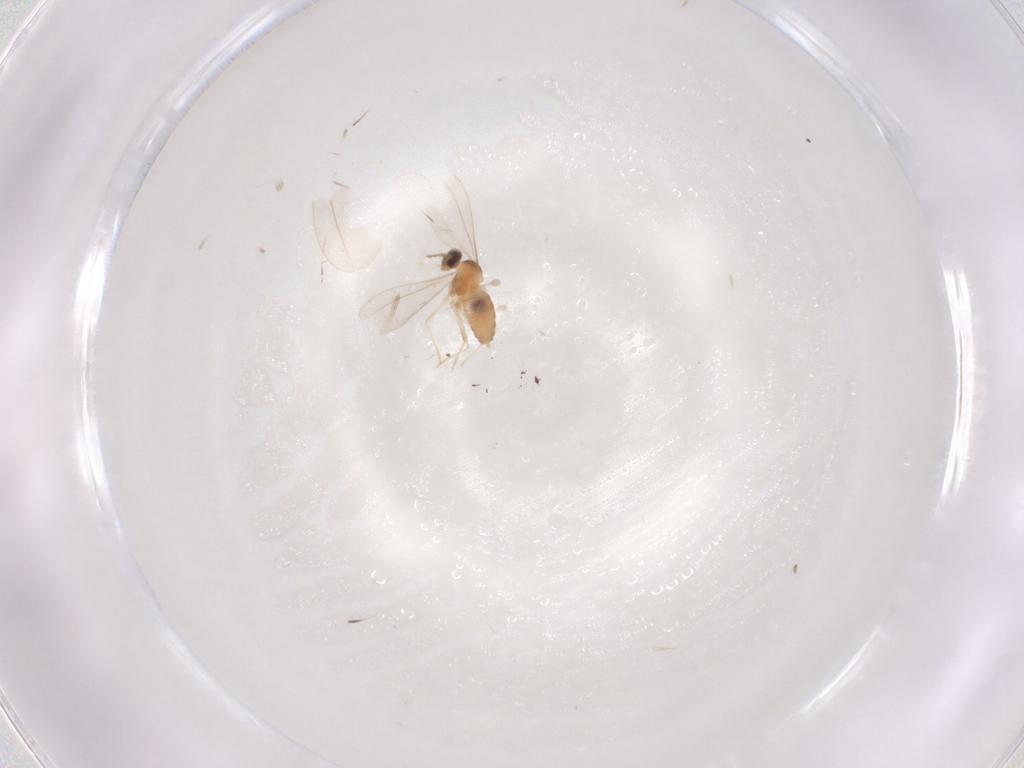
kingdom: Animalia
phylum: Arthropoda
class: Insecta
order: Diptera
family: Cecidomyiidae
